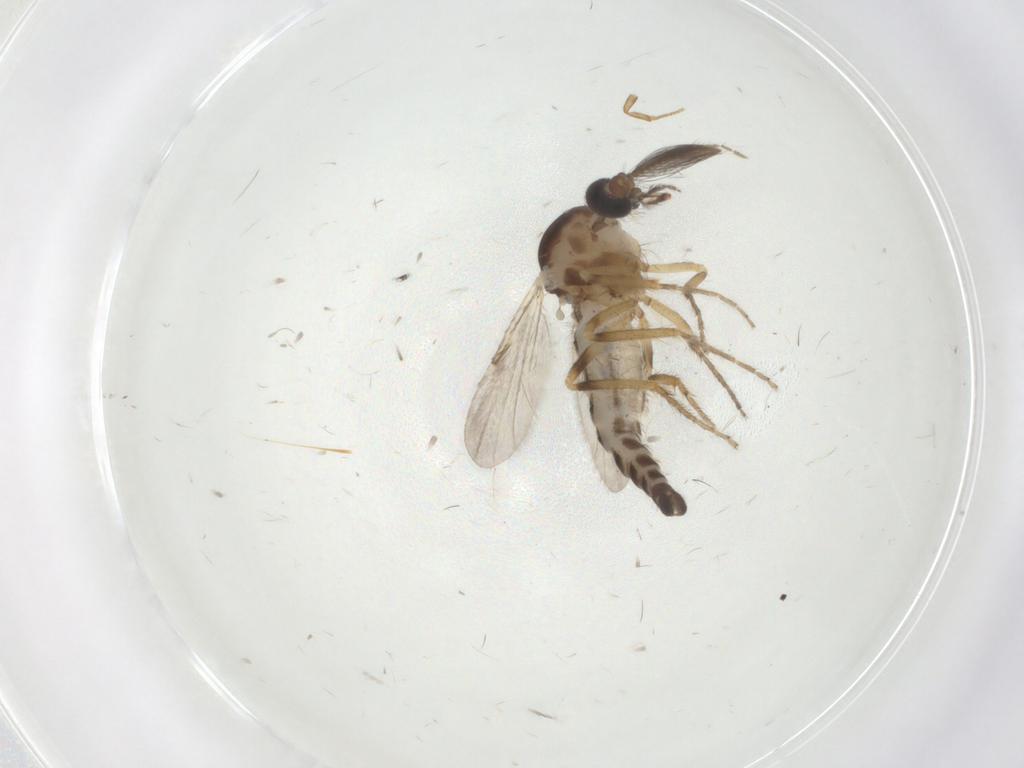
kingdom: Animalia
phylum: Arthropoda
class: Insecta
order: Diptera
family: Ceratopogonidae
